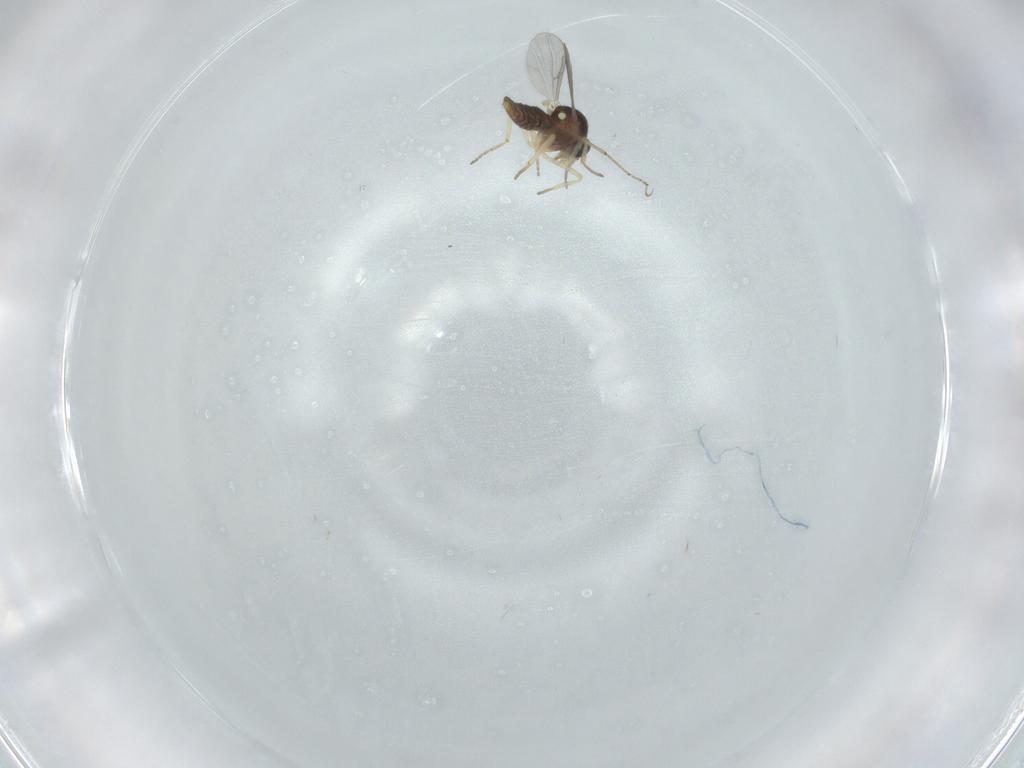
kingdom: Animalia
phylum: Arthropoda
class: Insecta
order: Diptera
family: Ceratopogonidae
